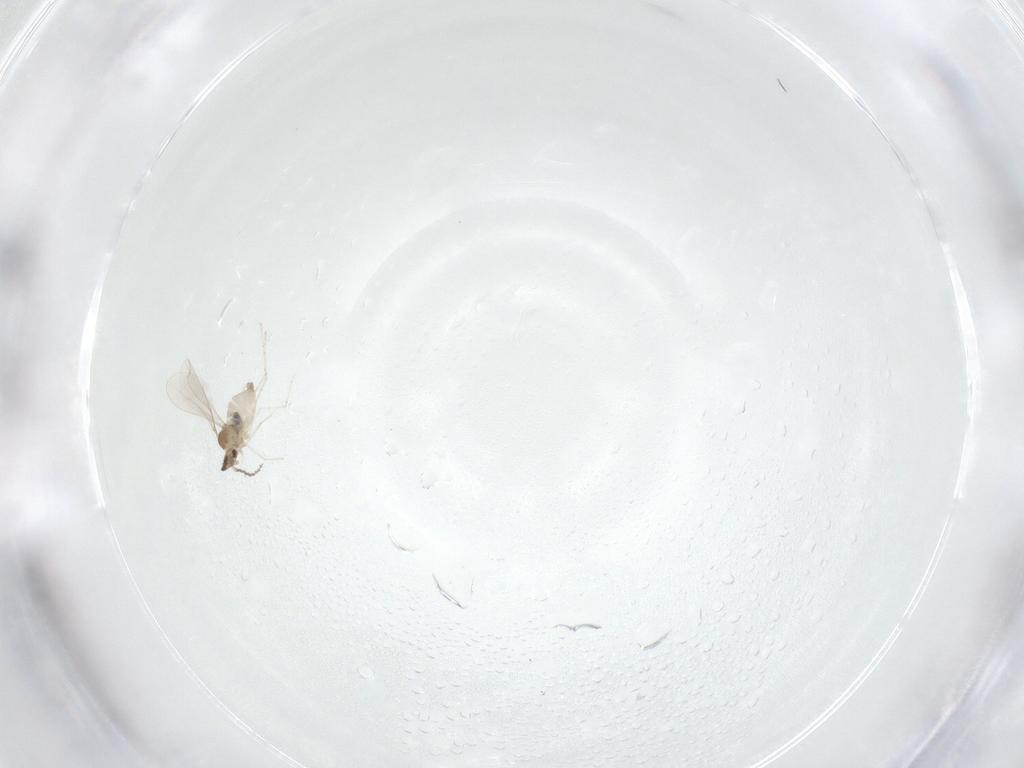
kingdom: Animalia
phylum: Arthropoda
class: Insecta
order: Diptera
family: Cecidomyiidae
